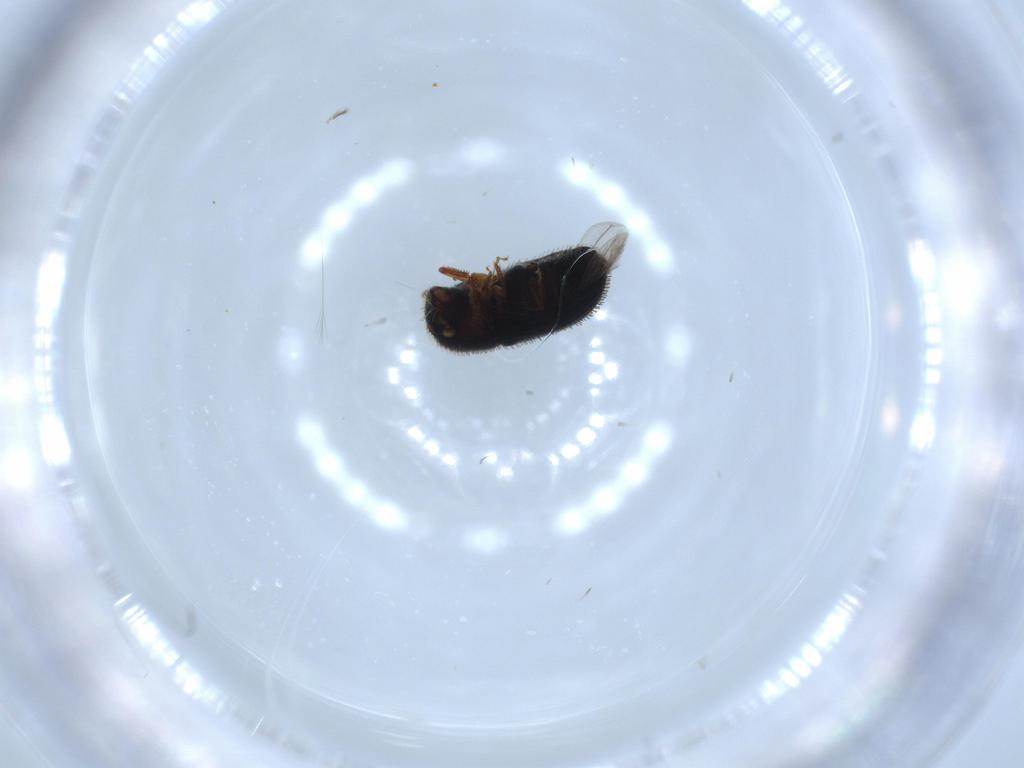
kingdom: Animalia
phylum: Arthropoda
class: Insecta
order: Coleoptera
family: Curculionidae
